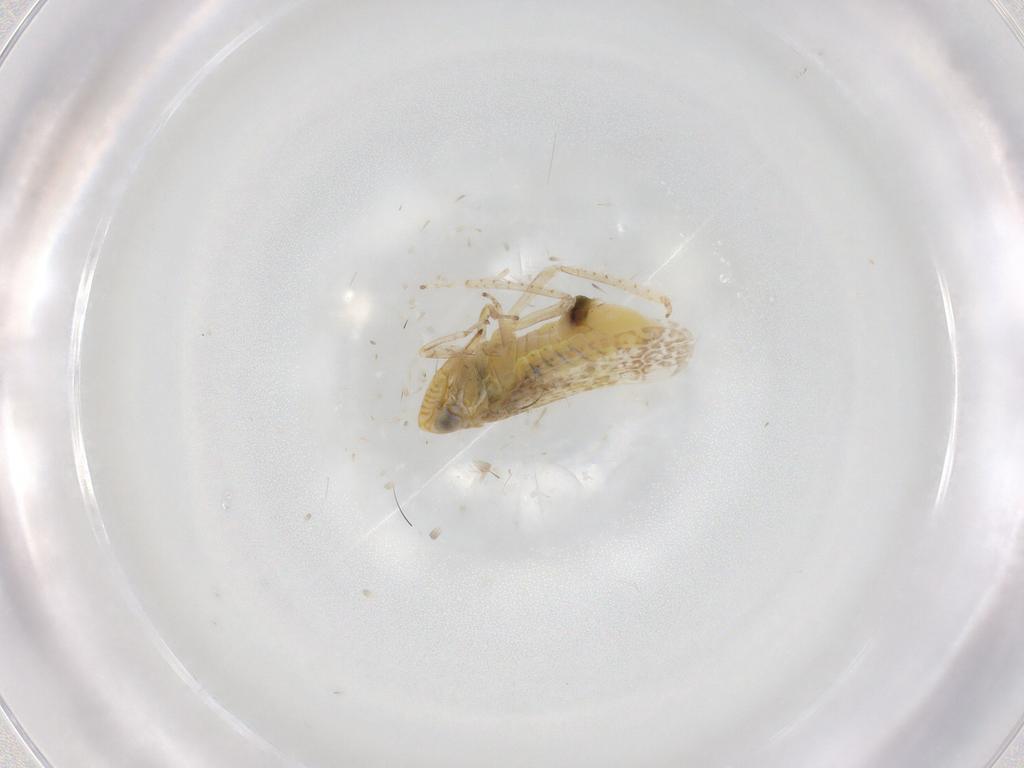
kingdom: Animalia
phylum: Arthropoda
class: Insecta
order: Hemiptera
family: Cicadellidae
